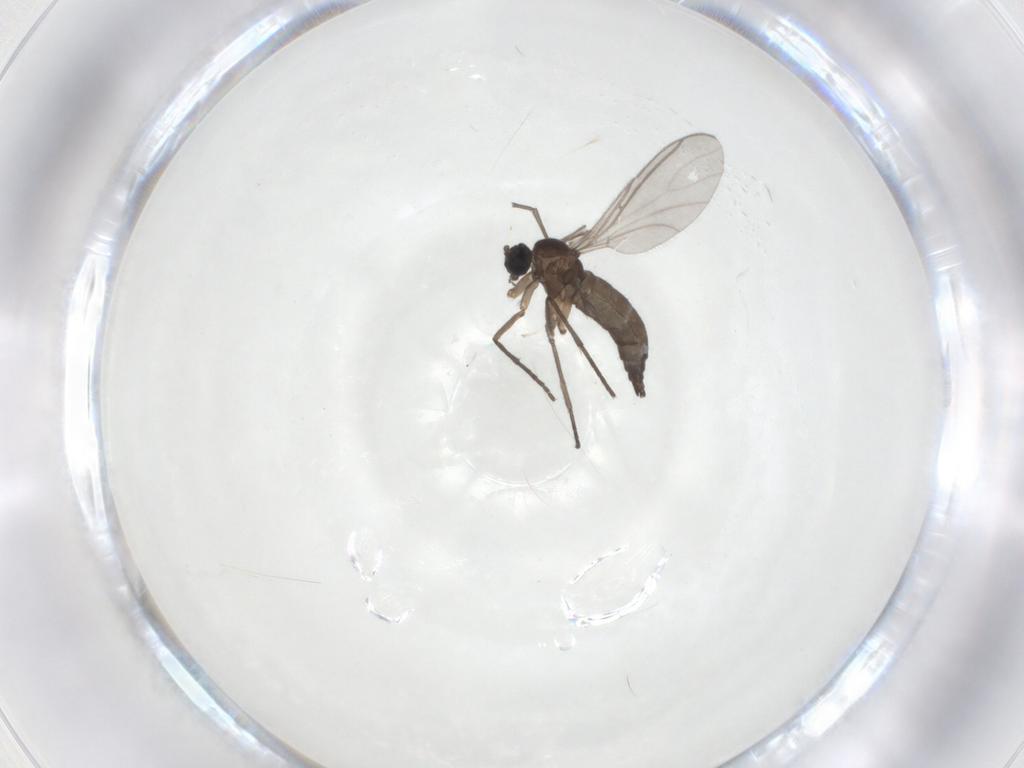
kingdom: Animalia
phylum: Arthropoda
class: Insecta
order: Diptera
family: Sciaridae
